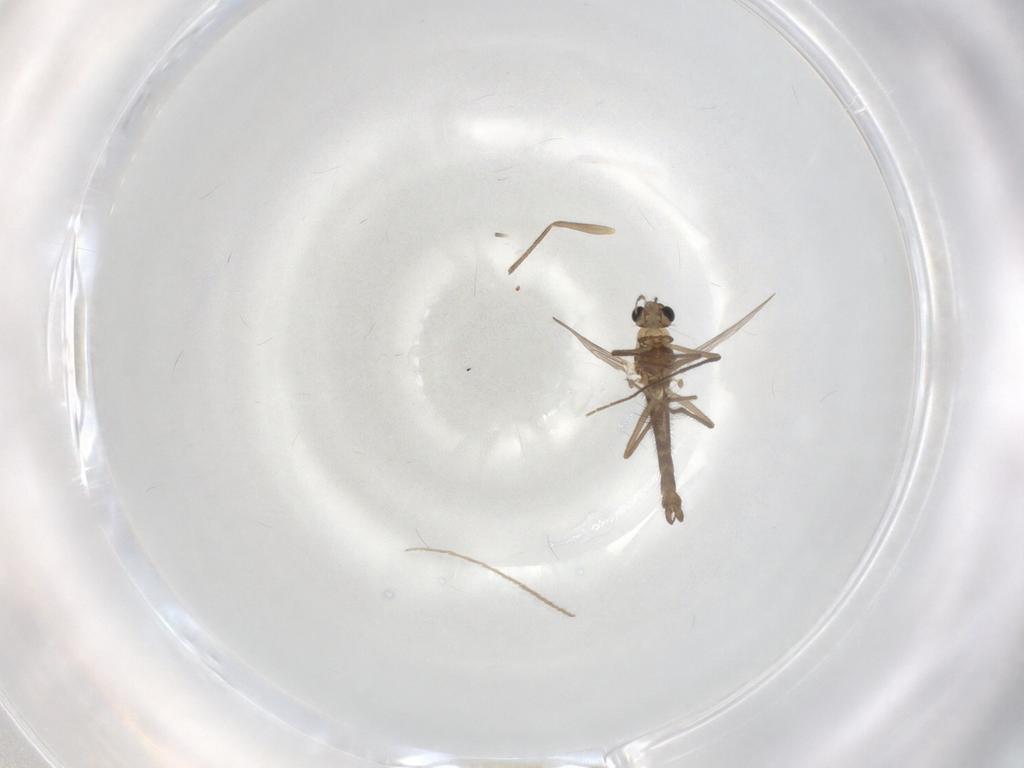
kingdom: Animalia
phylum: Arthropoda
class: Insecta
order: Diptera
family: Chironomidae
